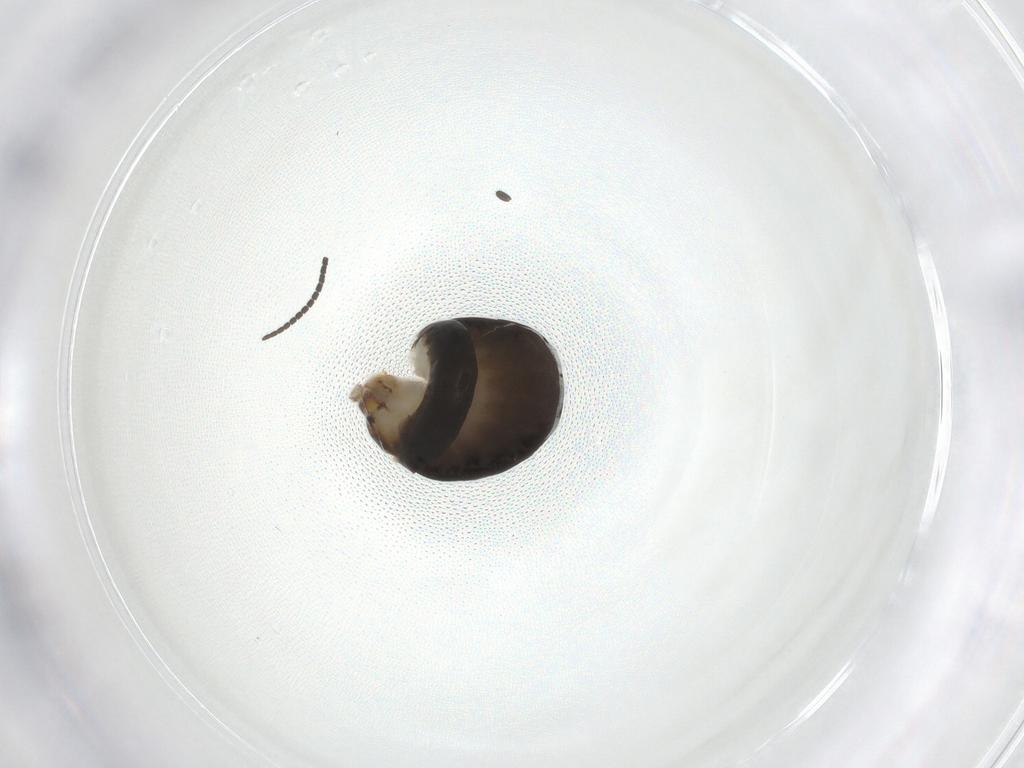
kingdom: Animalia
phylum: Arthropoda
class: Insecta
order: Hymenoptera
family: Dryinidae
